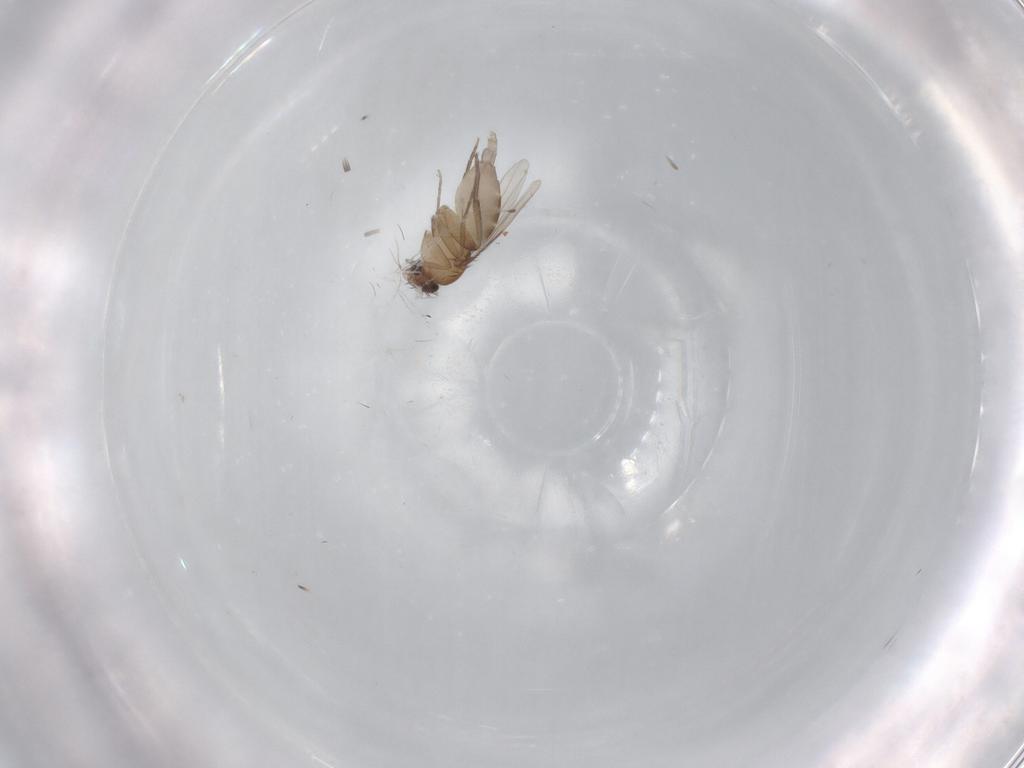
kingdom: Animalia
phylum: Arthropoda
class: Insecta
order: Diptera
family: Phoridae
